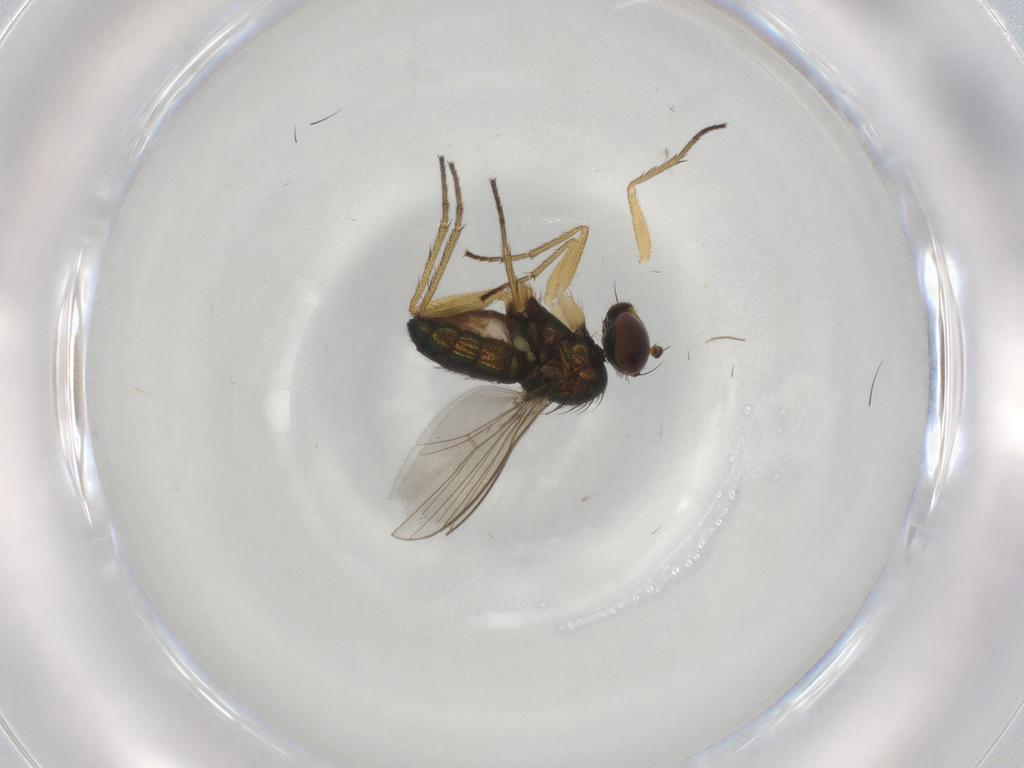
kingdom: Animalia
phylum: Arthropoda
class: Insecta
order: Diptera
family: Chironomidae
